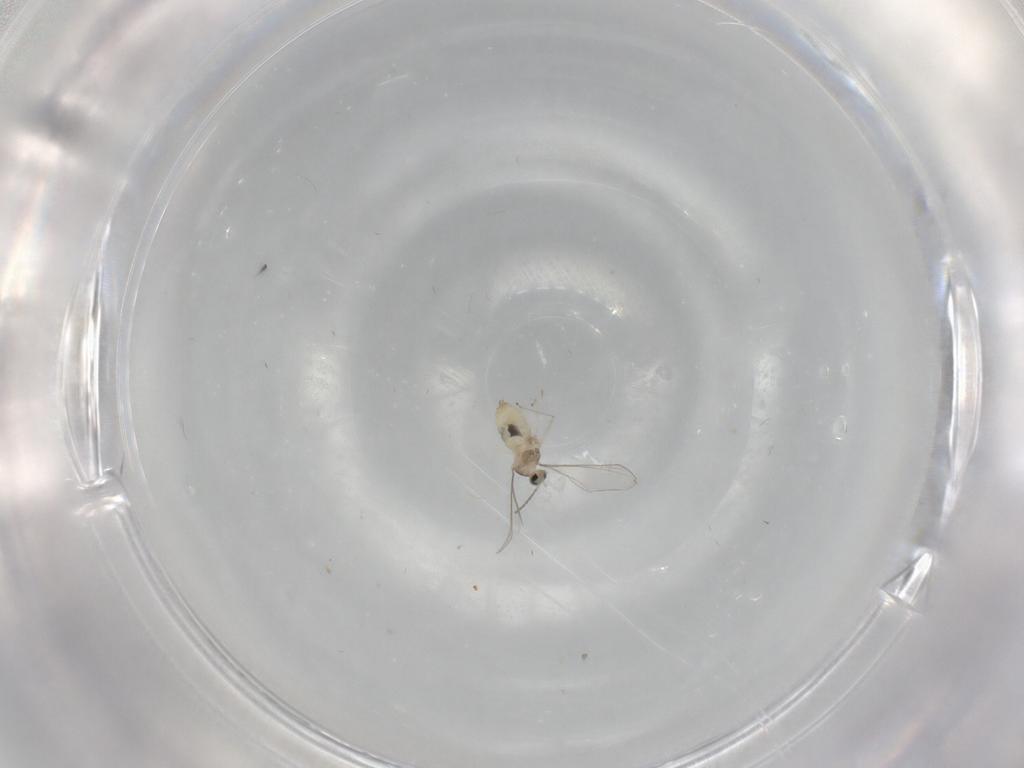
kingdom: Animalia
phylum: Arthropoda
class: Insecta
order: Diptera
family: Cecidomyiidae
